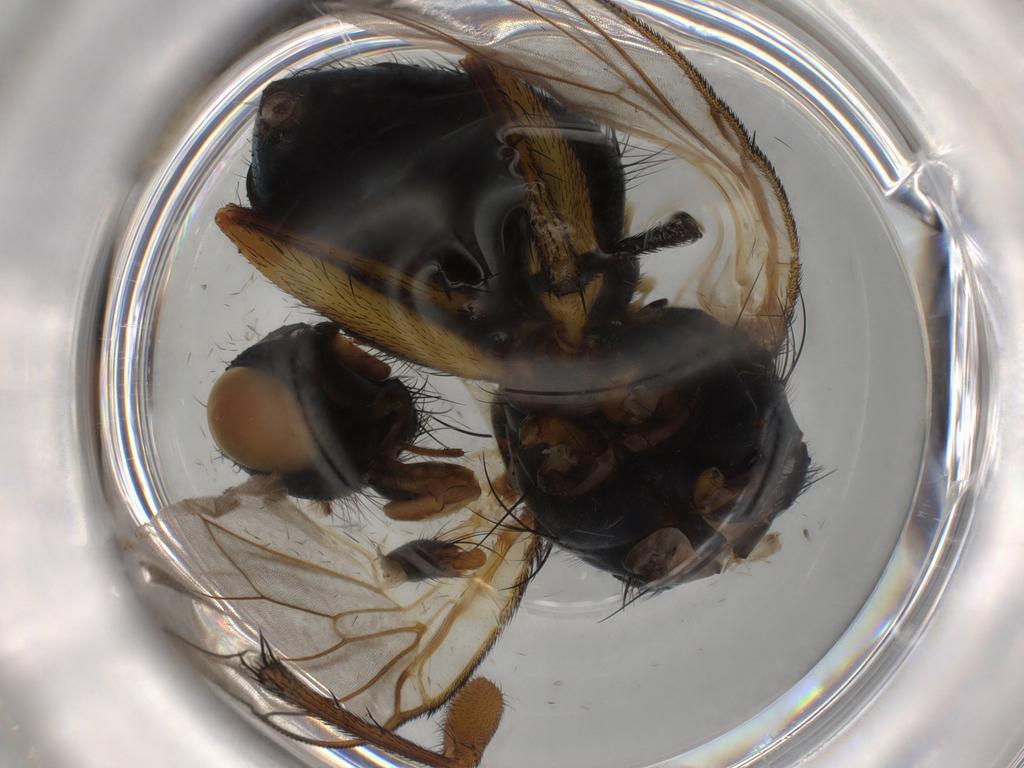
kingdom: Animalia
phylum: Arthropoda
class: Insecta
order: Diptera
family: Muscidae
